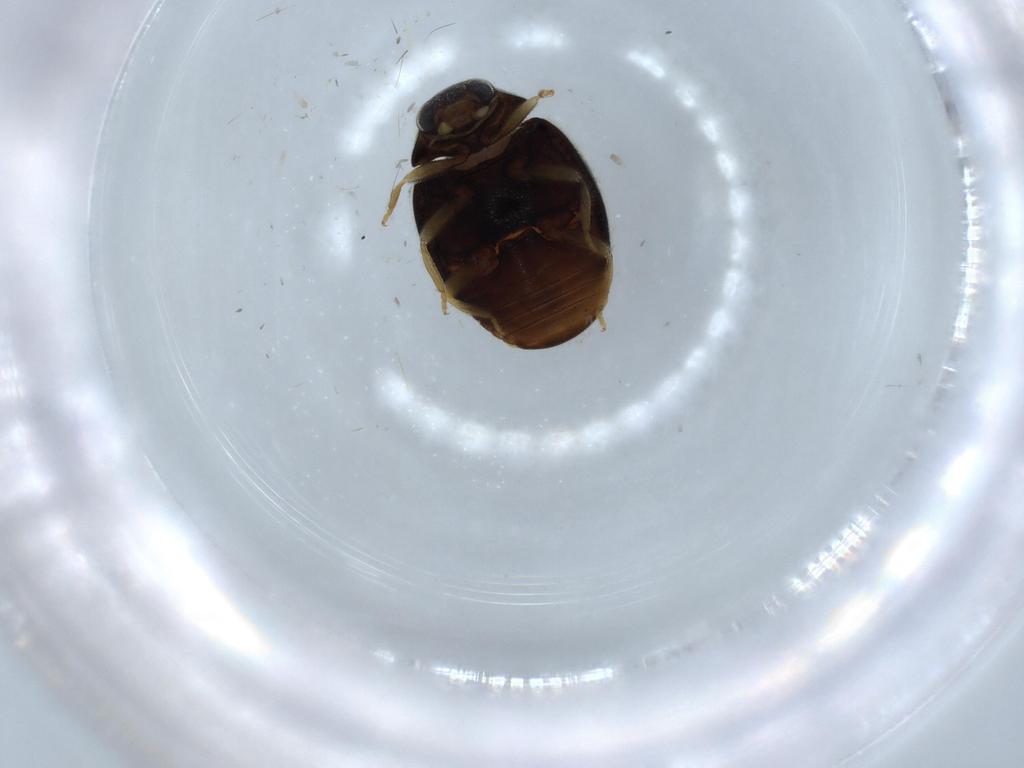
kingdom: Animalia
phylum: Arthropoda
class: Insecta
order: Coleoptera
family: Coccinellidae
